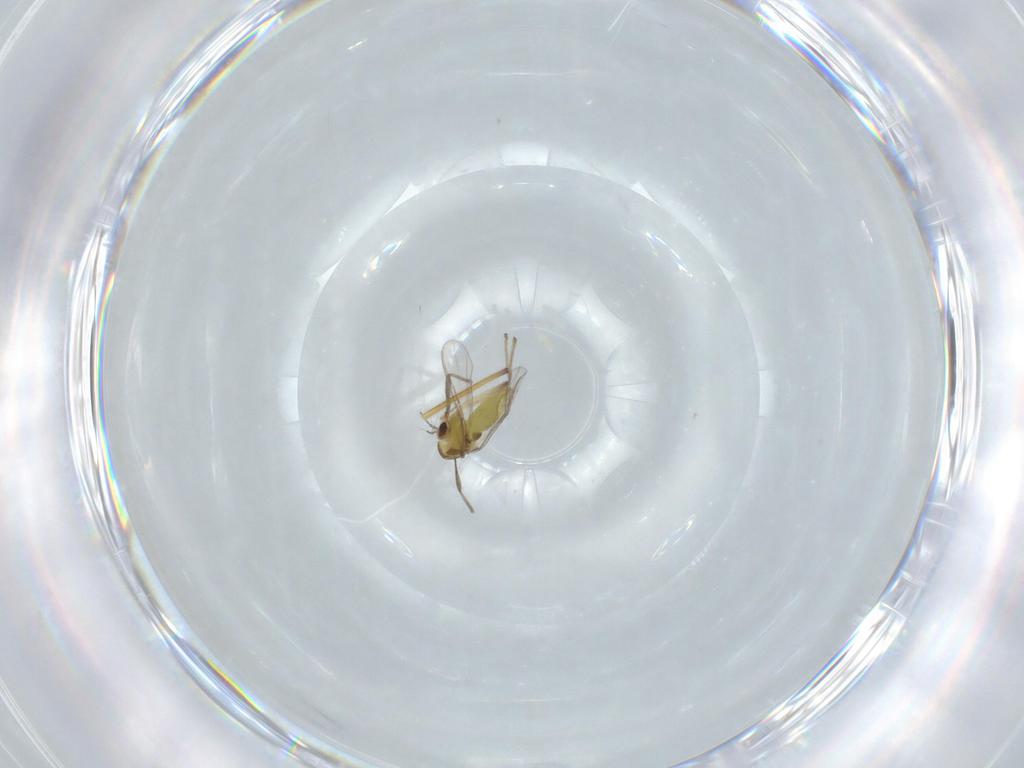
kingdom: Animalia
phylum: Arthropoda
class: Insecta
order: Diptera
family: Chironomidae
